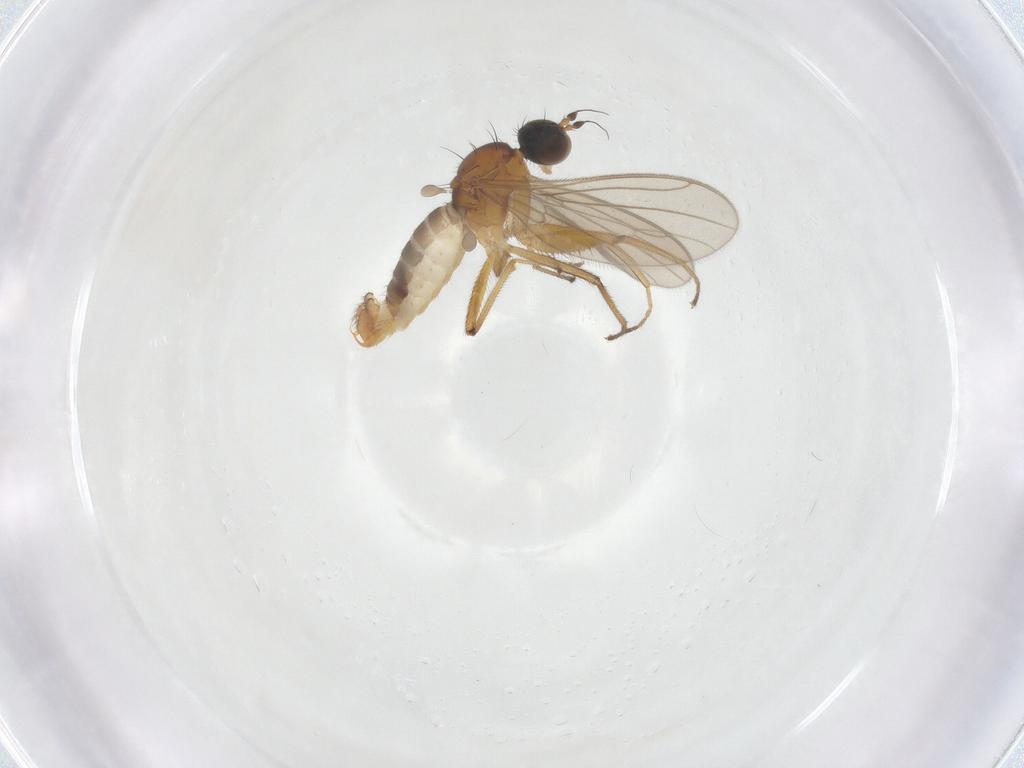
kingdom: Animalia
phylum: Arthropoda
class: Insecta
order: Diptera
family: Empididae
